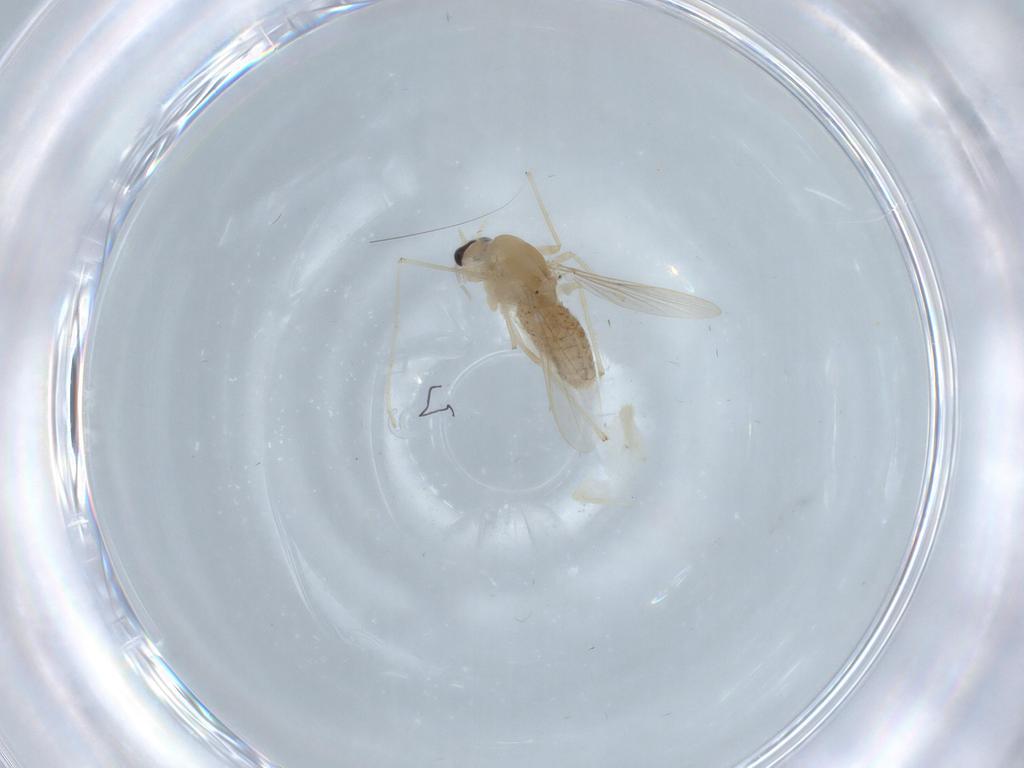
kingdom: Animalia
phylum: Arthropoda
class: Insecta
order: Diptera
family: Chironomidae
